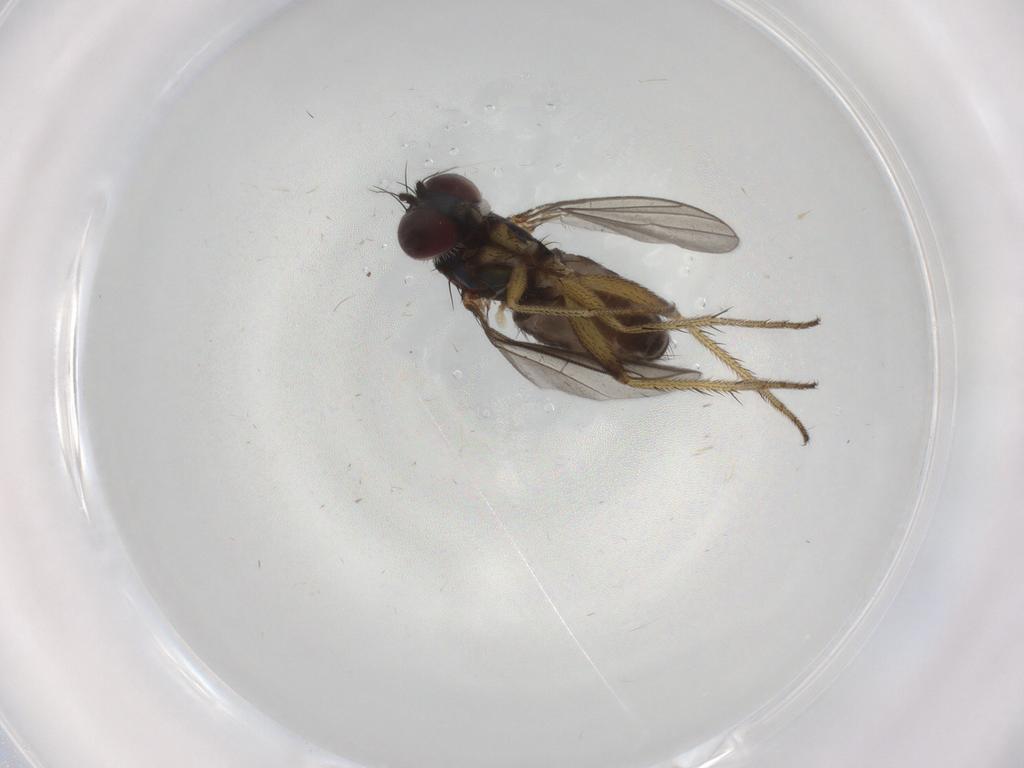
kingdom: Animalia
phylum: Arthropoda
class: Insecta
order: Diptera
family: Dolichopodidae
